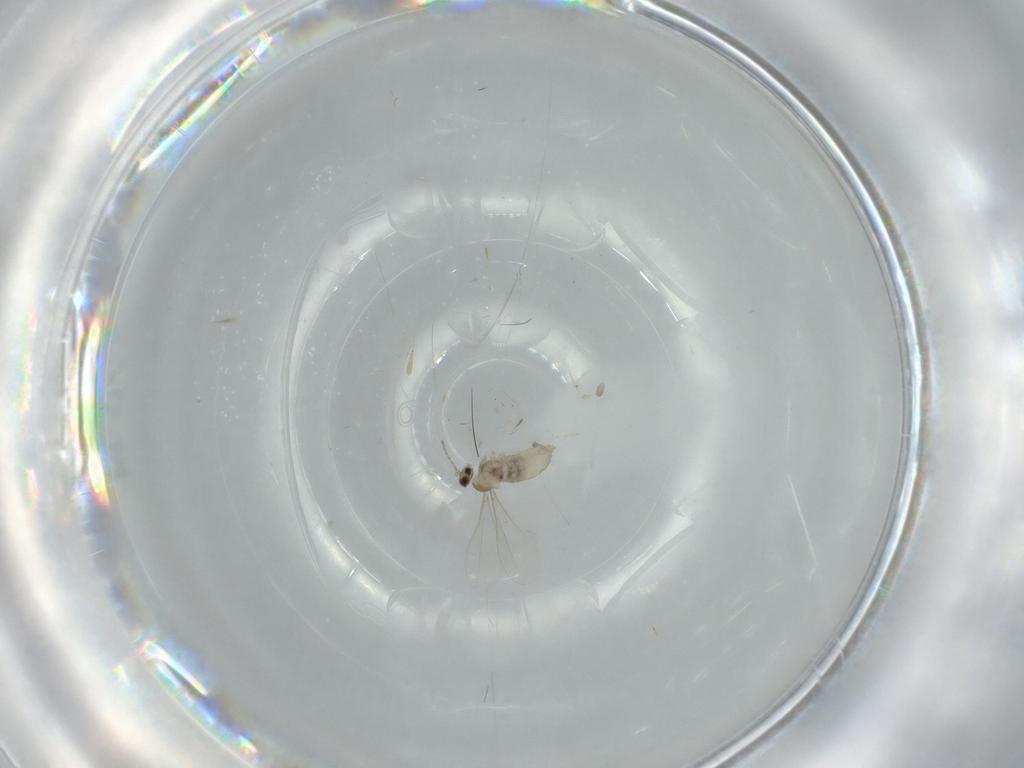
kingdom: Animalia
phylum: Arthropoda
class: Insecta
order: Diptera
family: Cecidomyiidae
